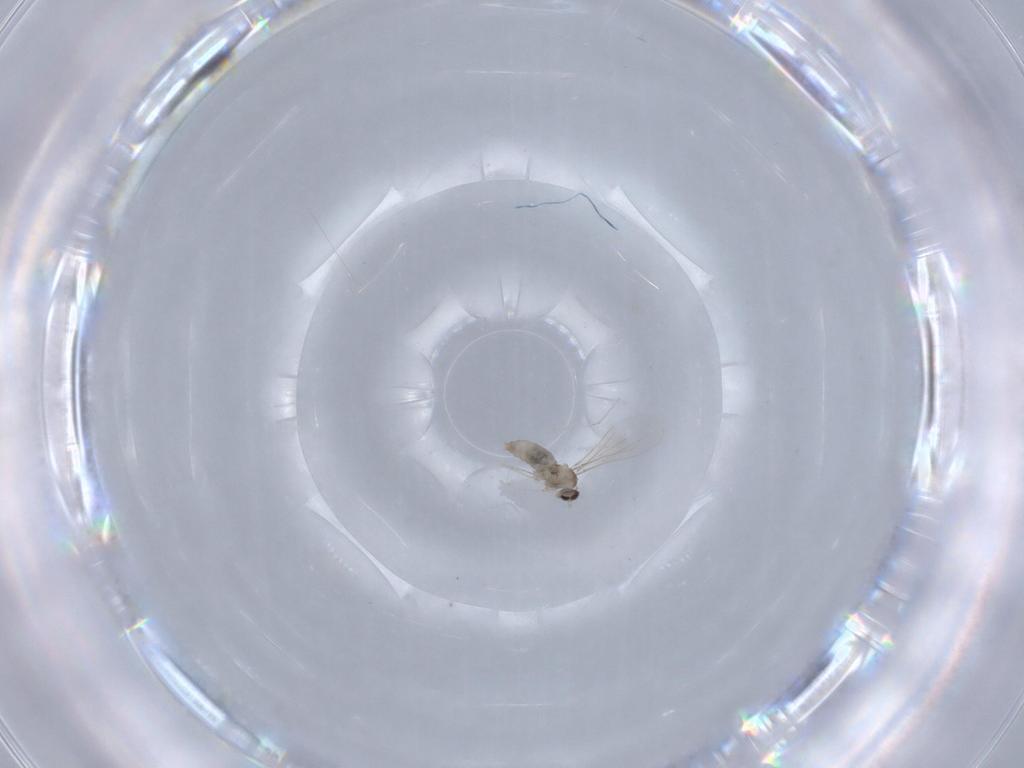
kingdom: Animalia
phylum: Arthropoda
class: Insecta
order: Diptera
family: Cecidomyiidae
